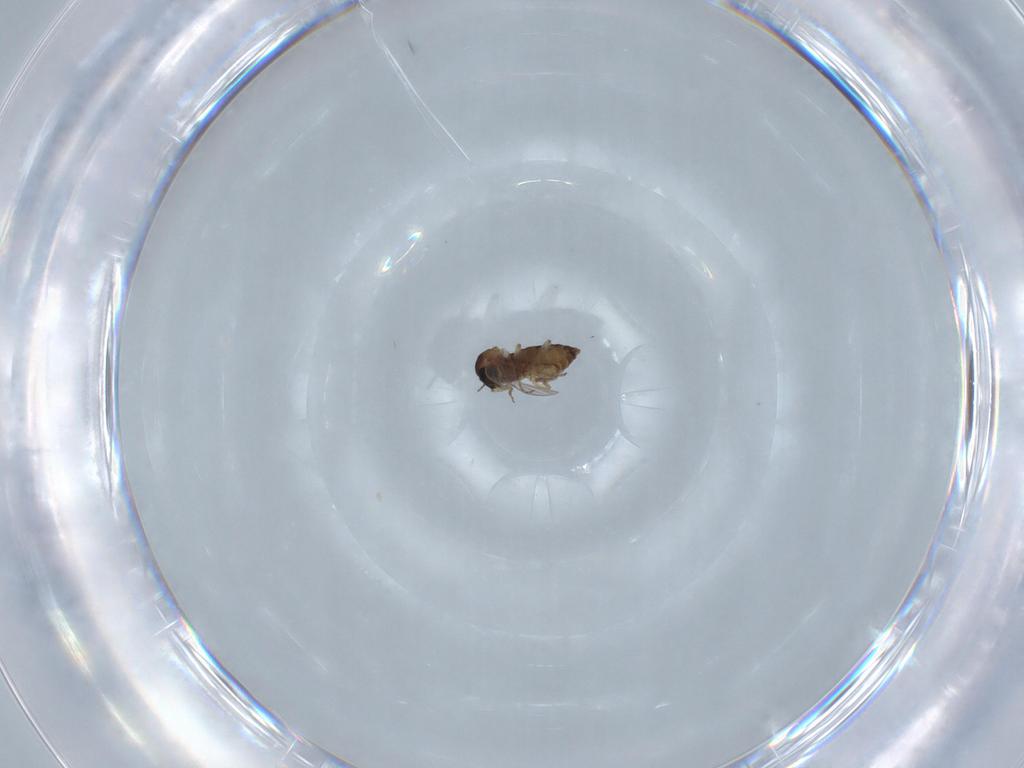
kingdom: Animalia
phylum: Arthropoda
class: Insecta
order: Diptera
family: Ceratopogonidae
